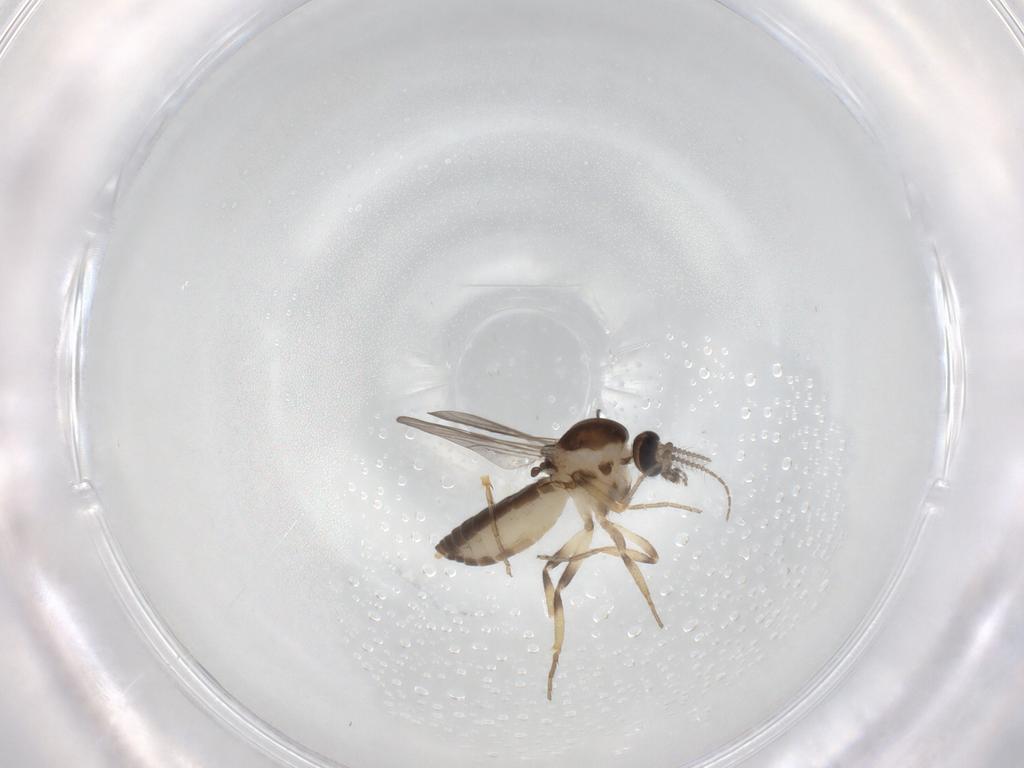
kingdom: Animalia
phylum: Arthropoda
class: Insecta
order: Diptera
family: Ceratopogonidae
